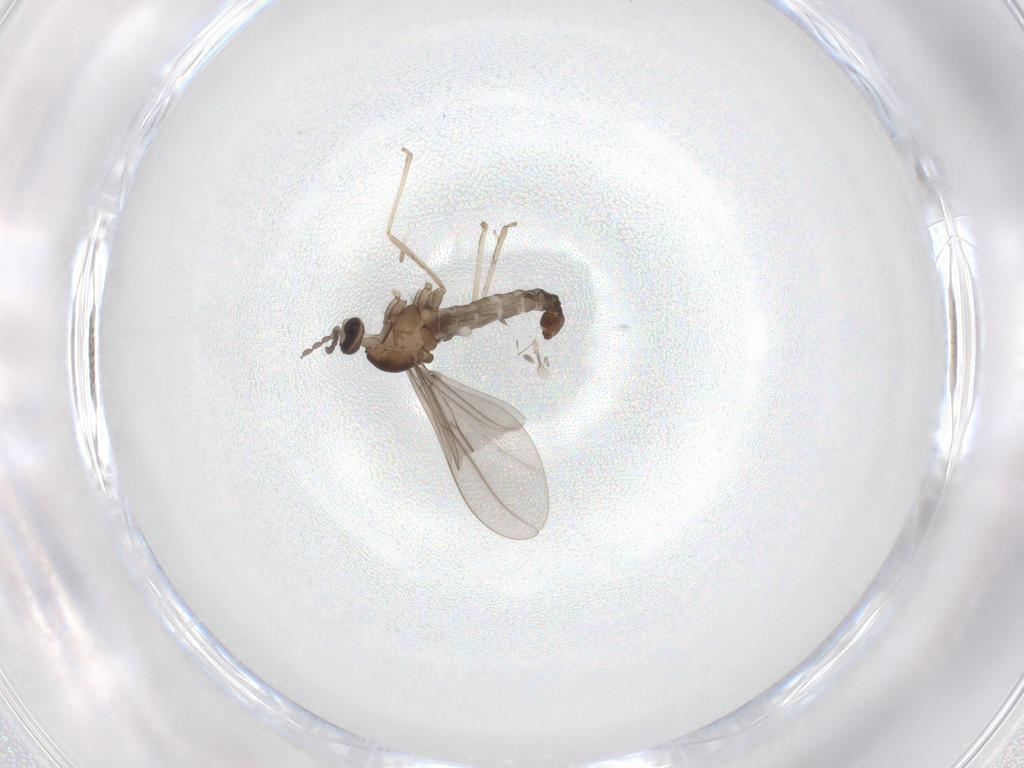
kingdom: Animalia
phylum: Arthropoda
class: Insecta
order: Diptera
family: Cecidomyiidae
